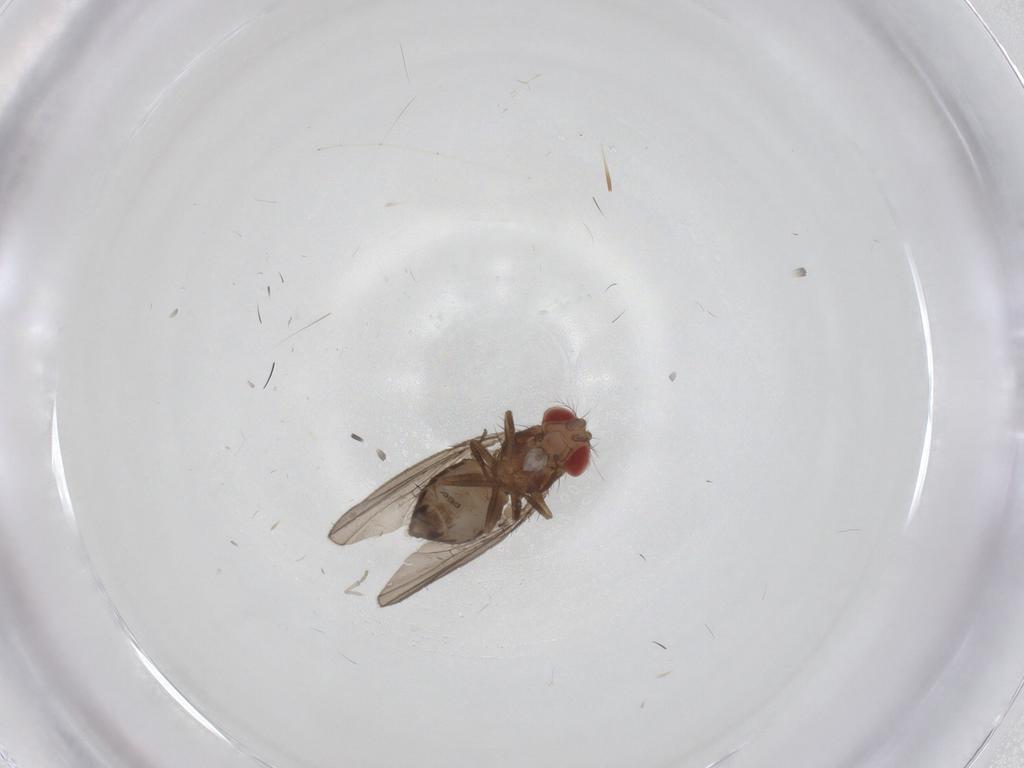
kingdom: Animalia
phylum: Arthropoda
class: Insecta
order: Diptera
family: Drosophilidae
